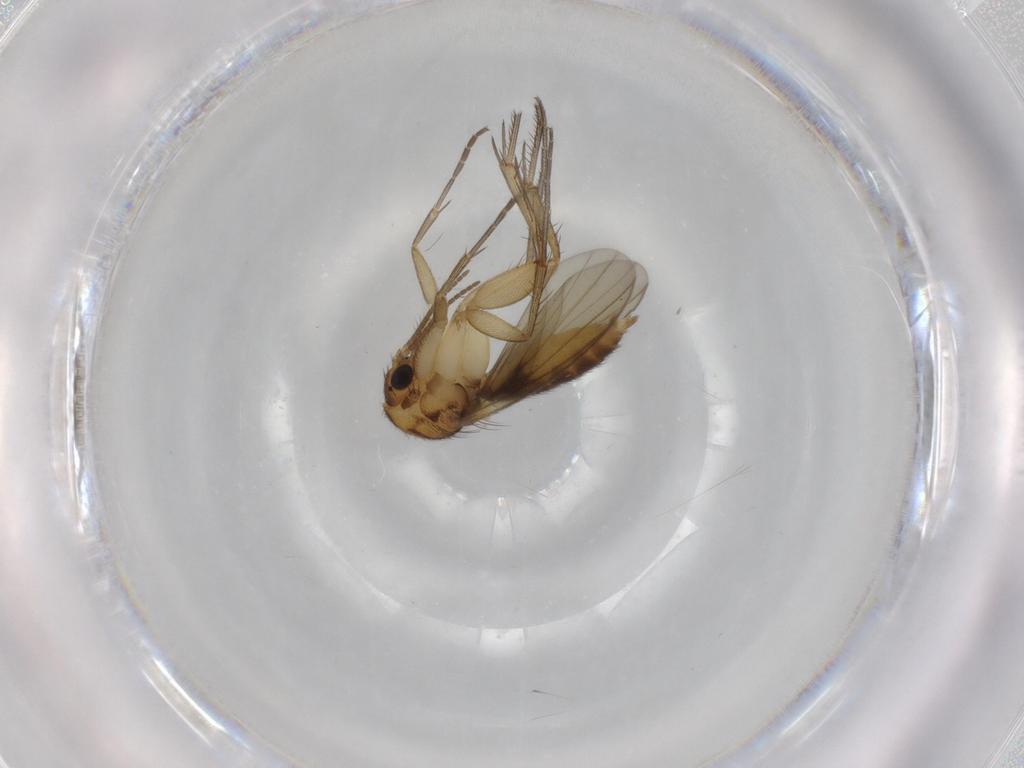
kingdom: Animalia
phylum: Arthropoda
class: Insecta
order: Diptera
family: Mycetophilidae
